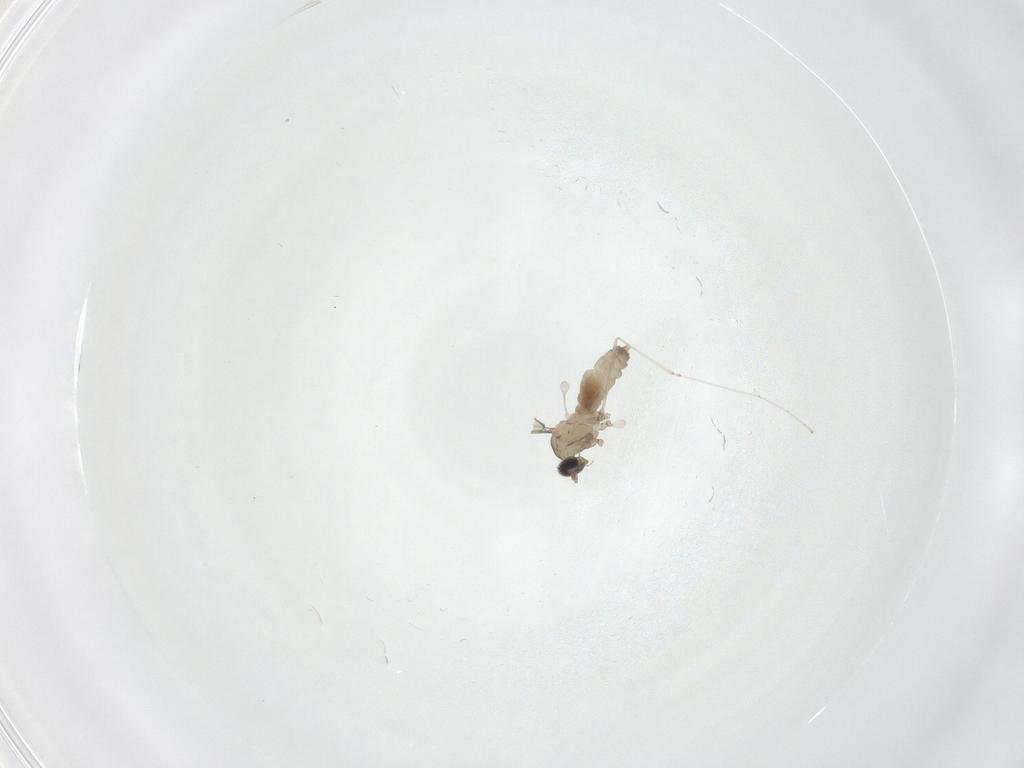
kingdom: Animalia
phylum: Arthropoda
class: Insecta
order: Diptera
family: Cecidomyiidae
